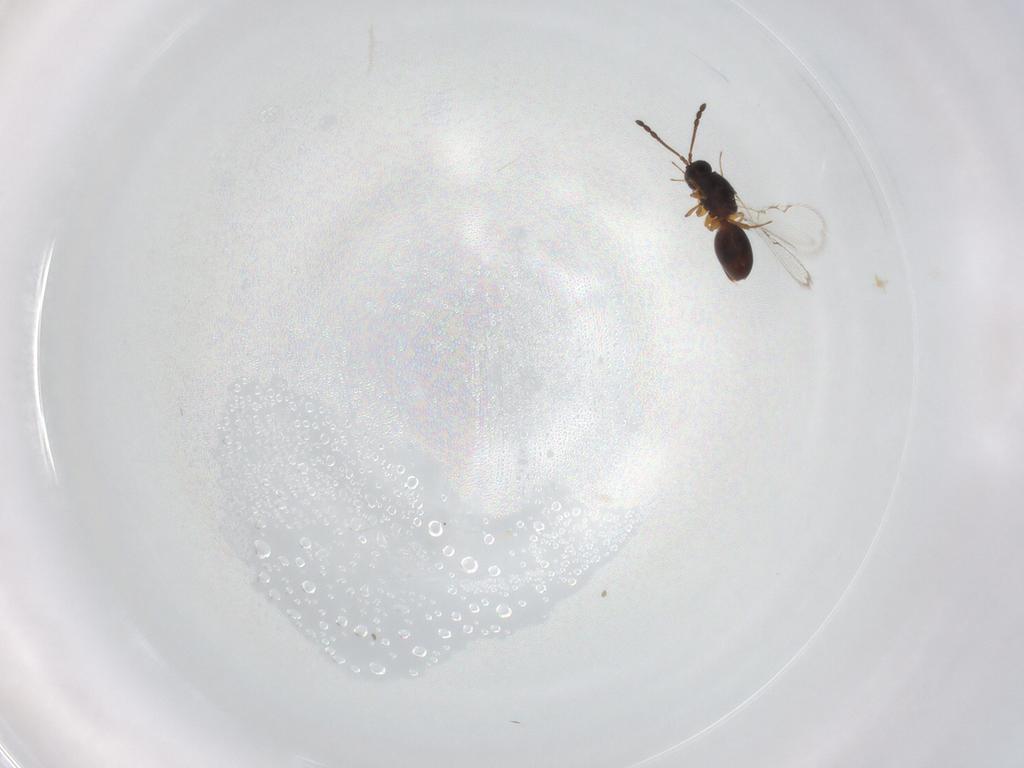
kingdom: Animalia
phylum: Arthropoda
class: Insecta
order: Hymenoptera
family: Figitidae
